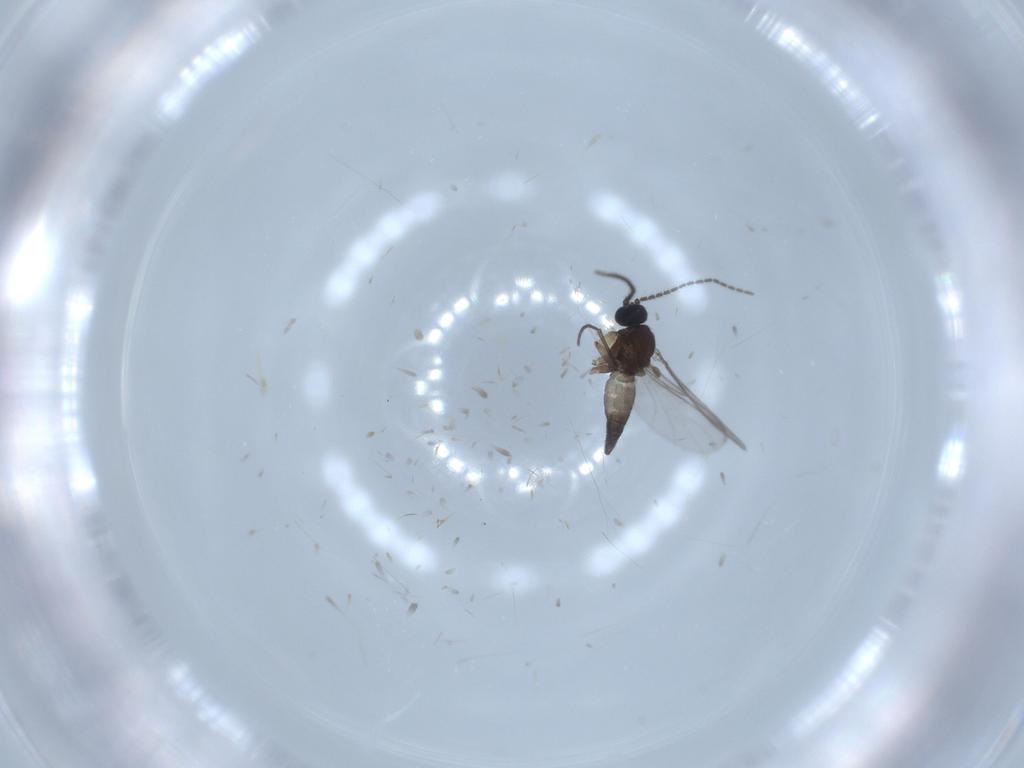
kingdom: Animalia
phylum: Arthropoda
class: Insecta
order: Diptera
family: Sciaridae
